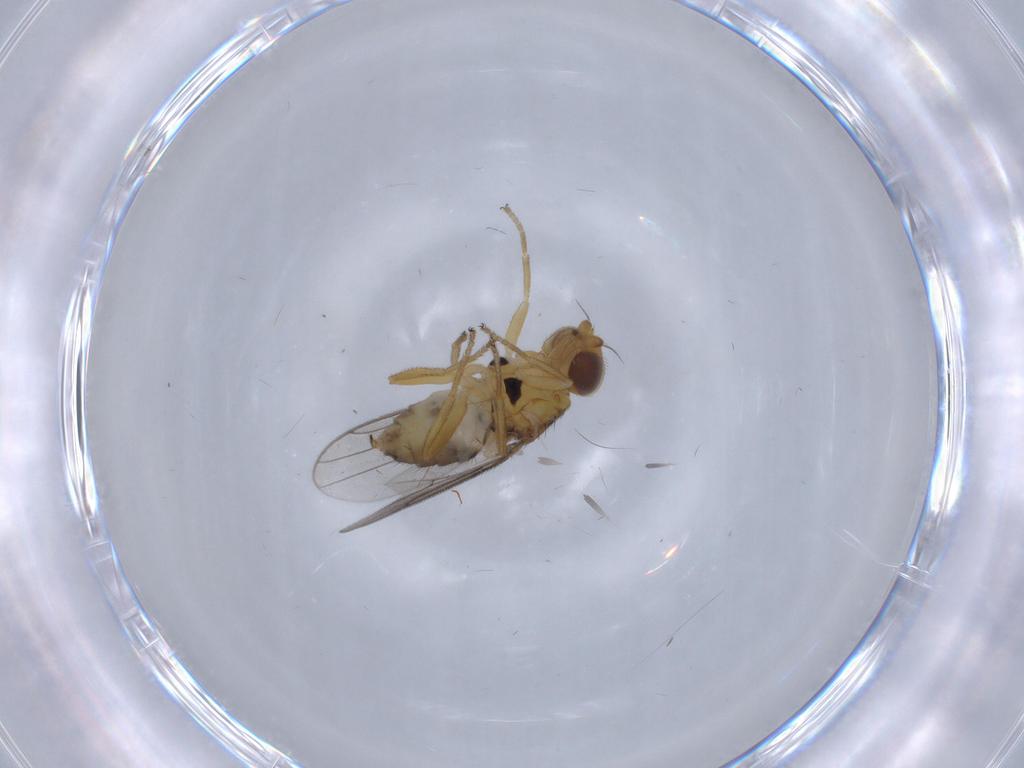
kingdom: Animalia
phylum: Arthropoda
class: Insecta
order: Diptera
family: Chloropidae
